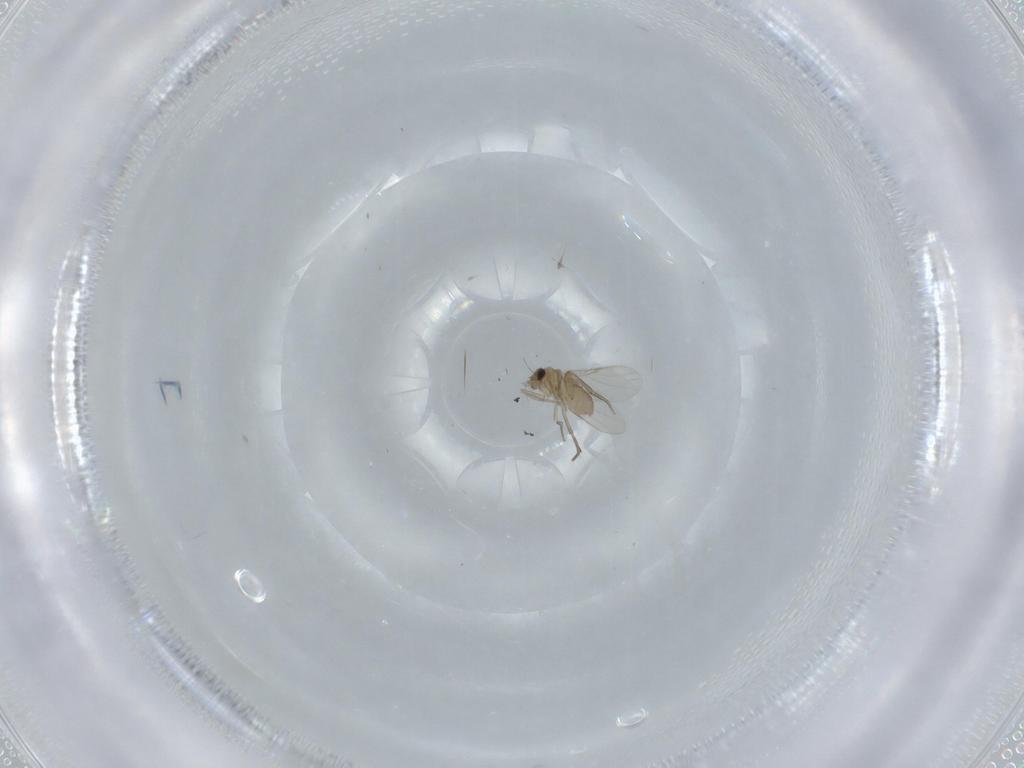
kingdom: Animalia
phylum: Arthropoda
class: Insecta
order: Diptera
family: Phoridae
